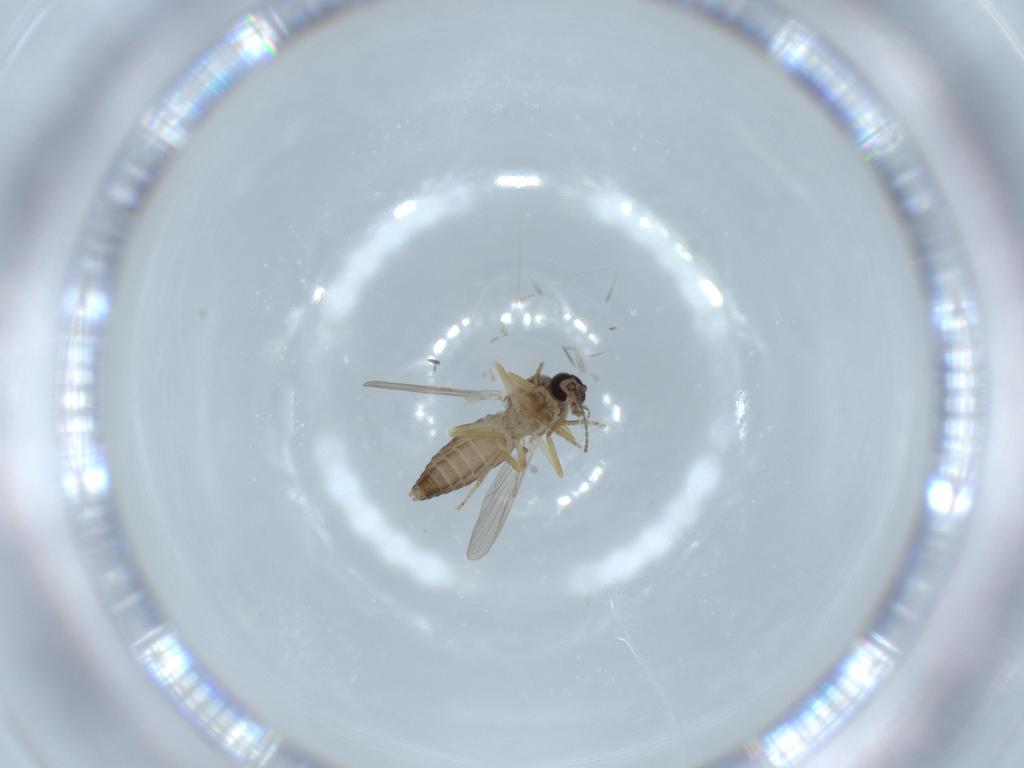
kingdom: Animalia
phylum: Arthropoda
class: Insecta
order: Diptera
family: Ceratopogonidae
